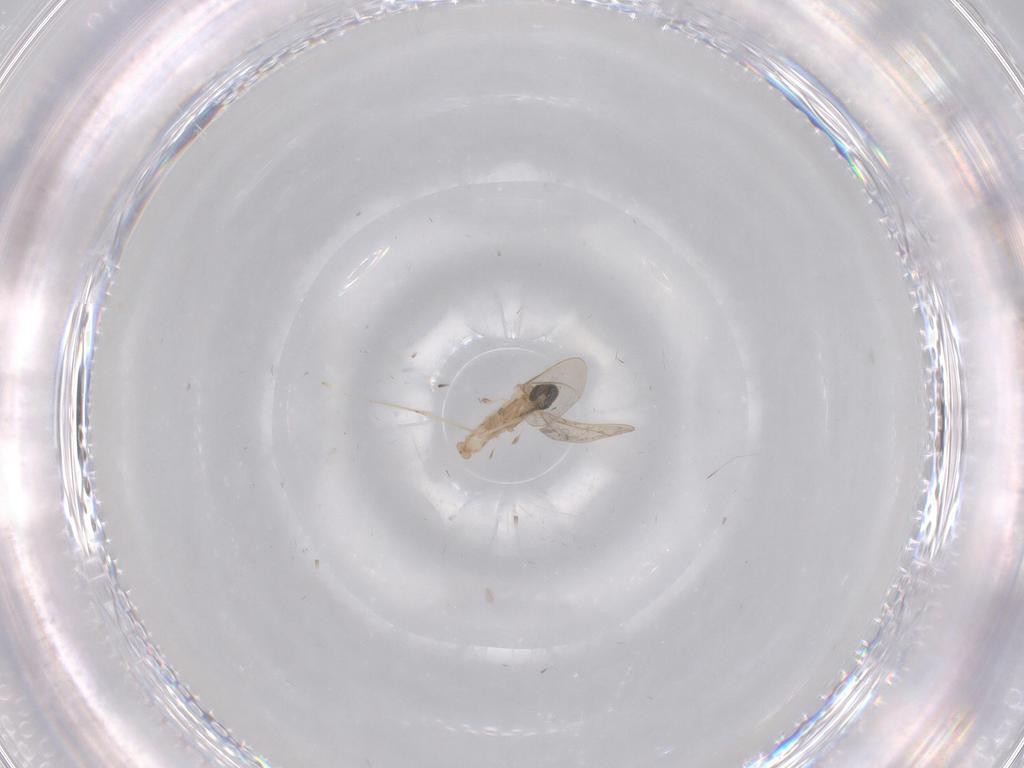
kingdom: Animalia
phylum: Arthropoda
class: Insecta
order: Diptera
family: Cecidomyiidae
